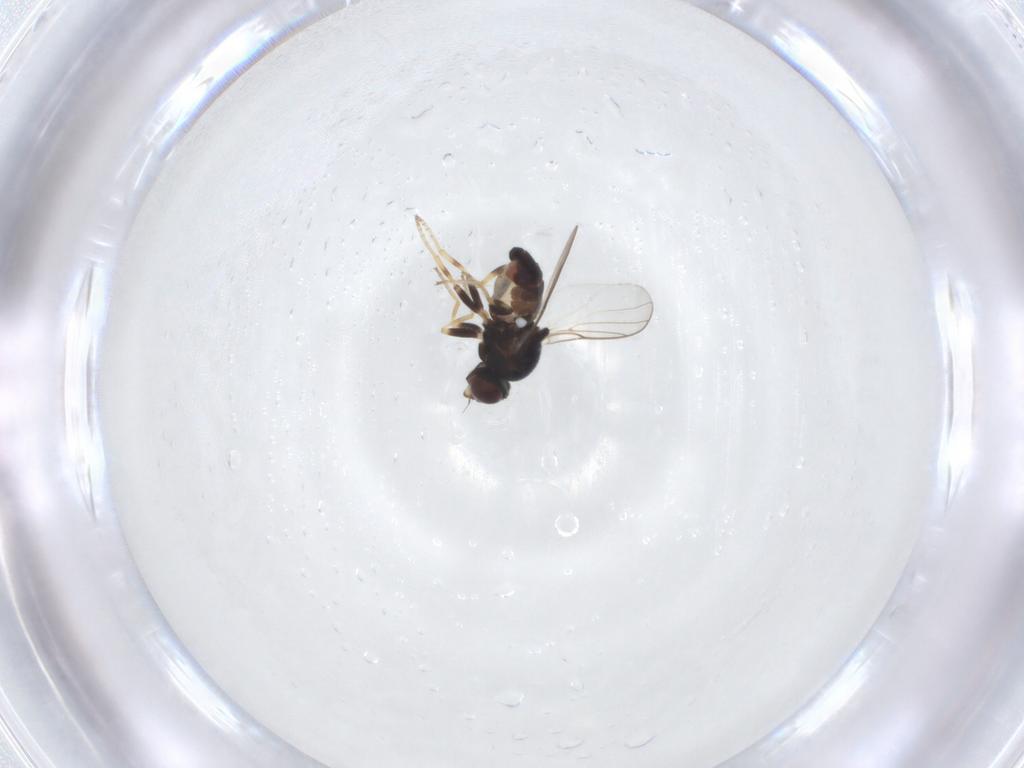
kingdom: Animalia
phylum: Arthropoda
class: Insecta
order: Diptera
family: Chloropidae
